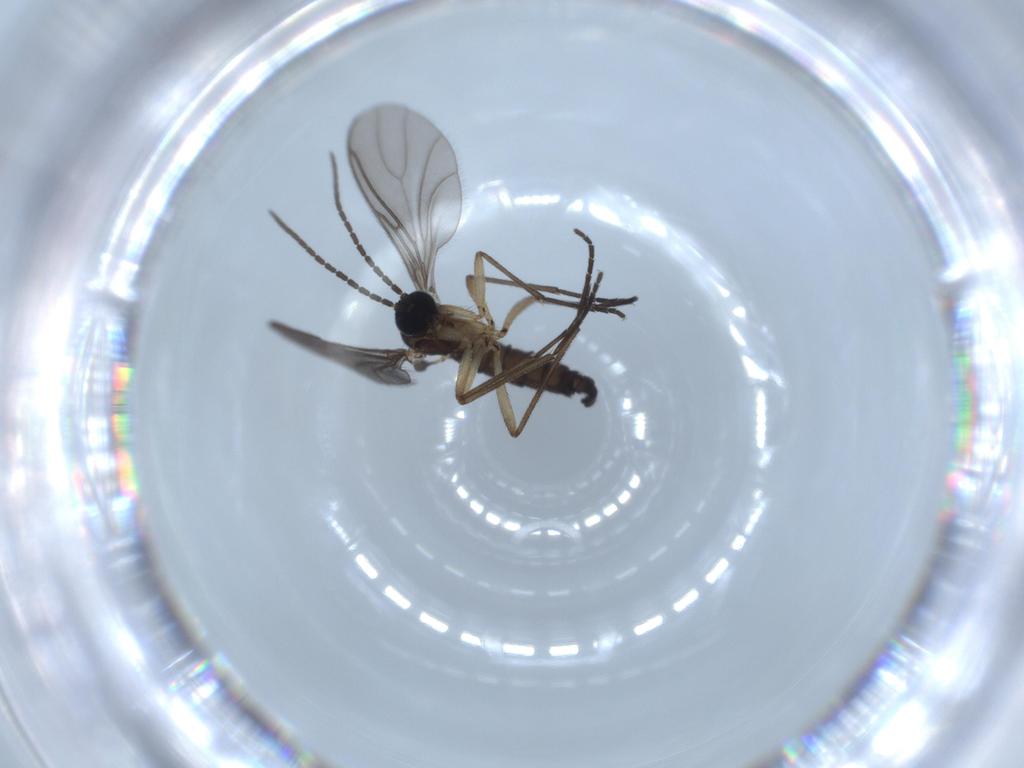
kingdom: Animalia
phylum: Arthropoda
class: Insecta
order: Diptera
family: Sciaridae
